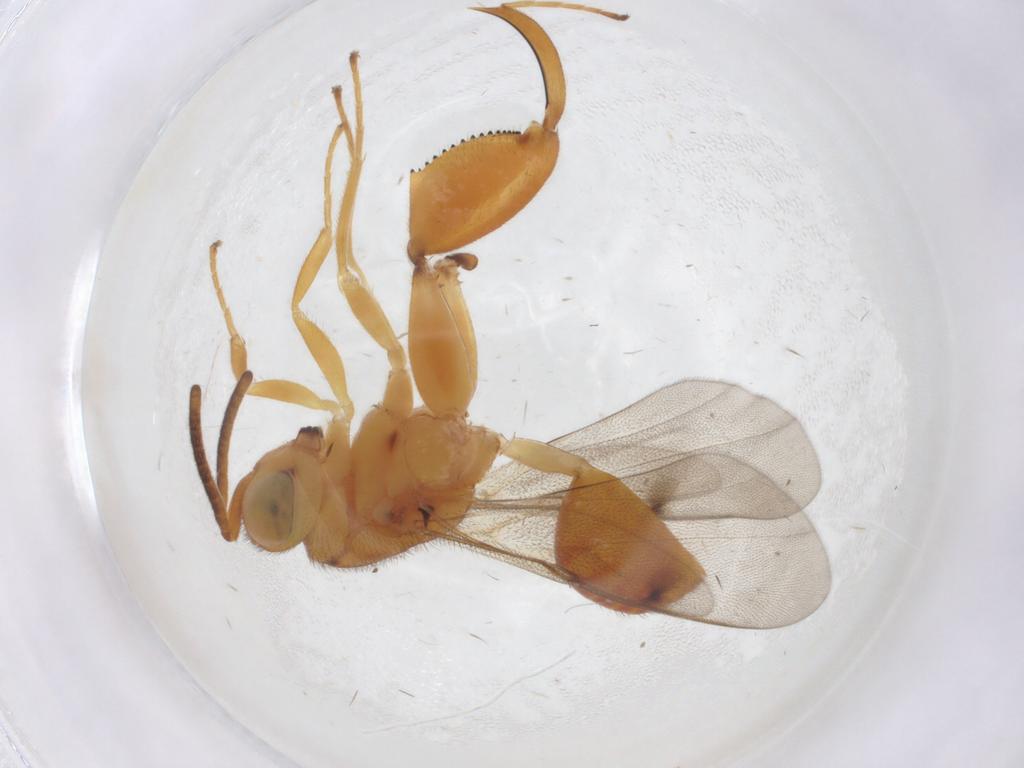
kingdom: Animalia
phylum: Arthropoda
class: Insecta
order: Hymenoptera
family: Chalcididae
